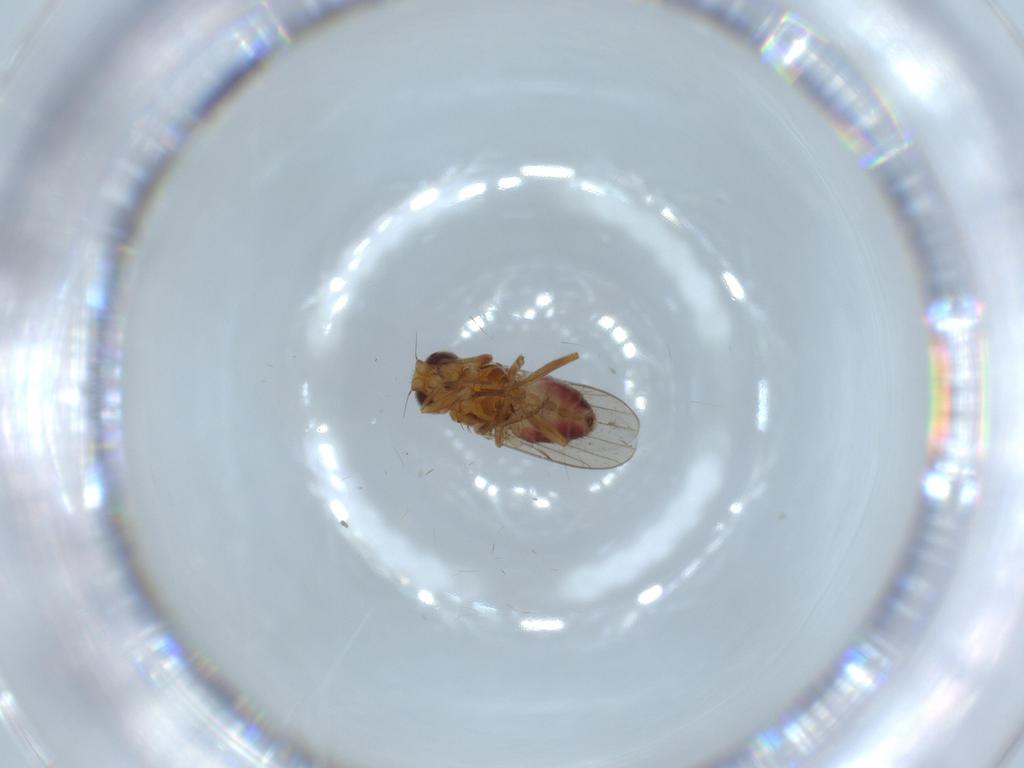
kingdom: Animalia
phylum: Arthropoda
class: Insecta
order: Diptera
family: Chloropidae
